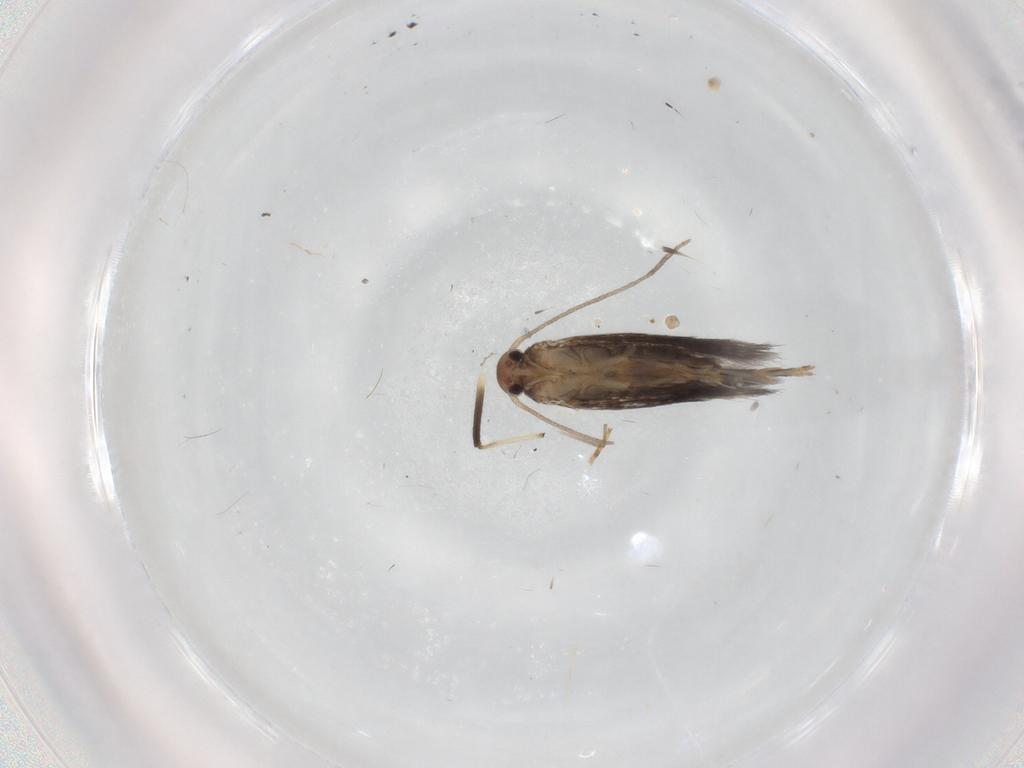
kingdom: Animalia
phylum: Arthropoda
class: Insecta
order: Lepidoptera
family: Elachistidae
